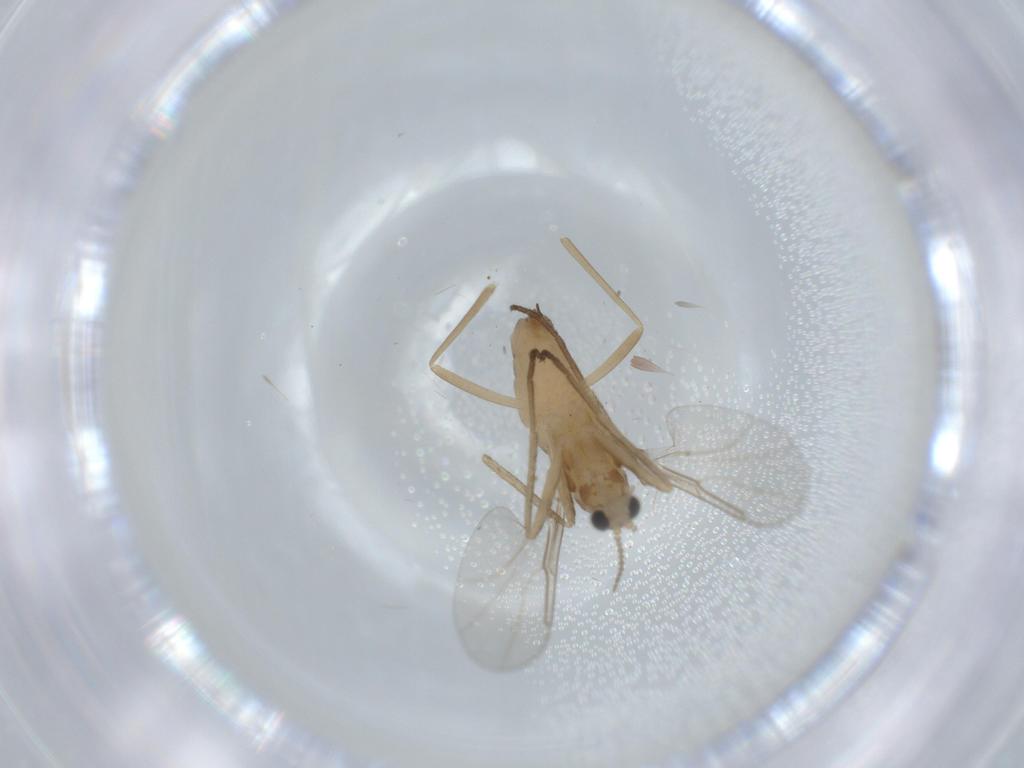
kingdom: Animalia
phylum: Arthropoda
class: Insecta
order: Diptera
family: Cecidomyiidae
